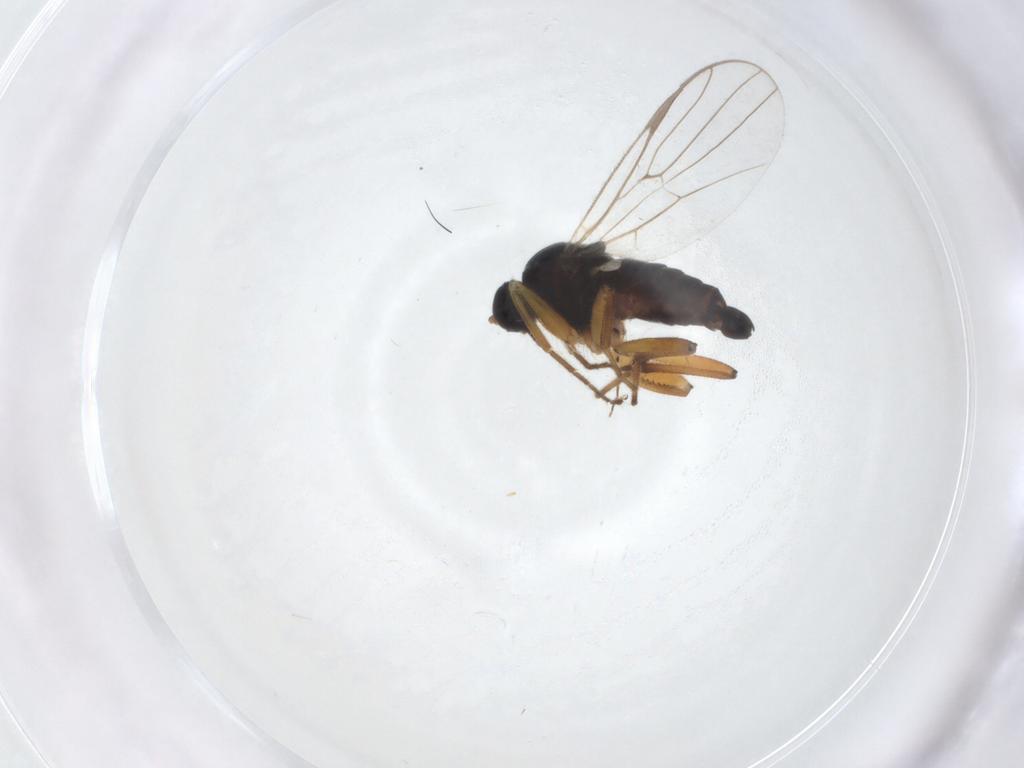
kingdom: Animalia
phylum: Arthropoda
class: Insecta
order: Diptera
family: Hybotidae
